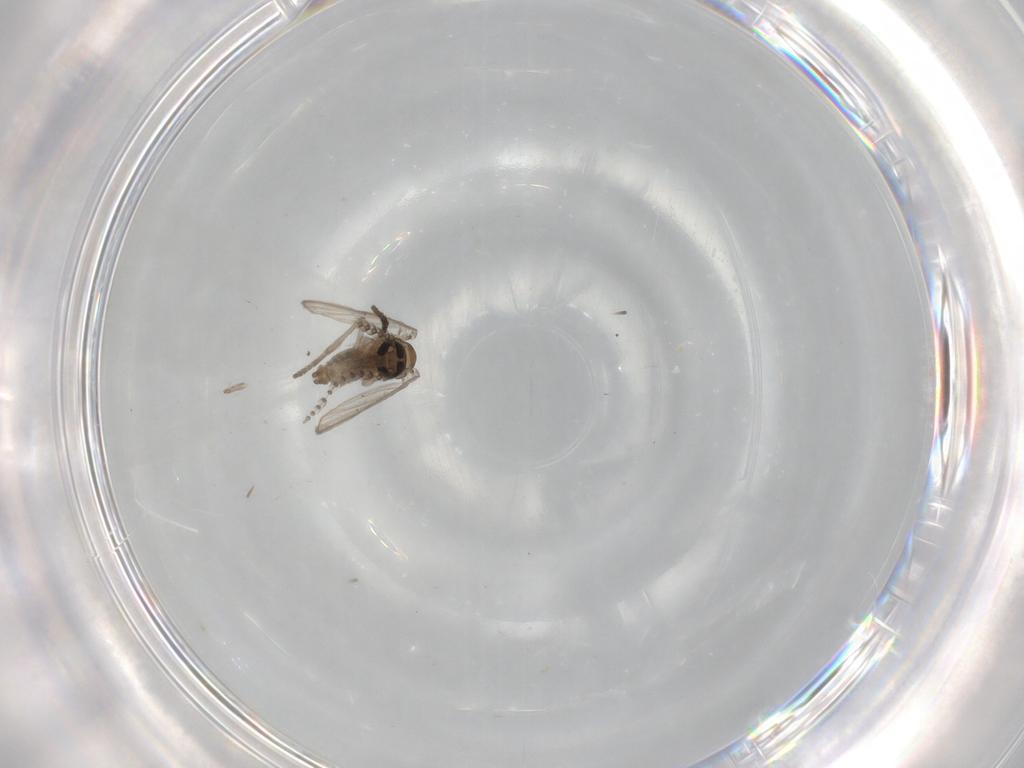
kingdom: Animalia
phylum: Arthropoda
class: Insecta
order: Diptera
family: Psychodidae
